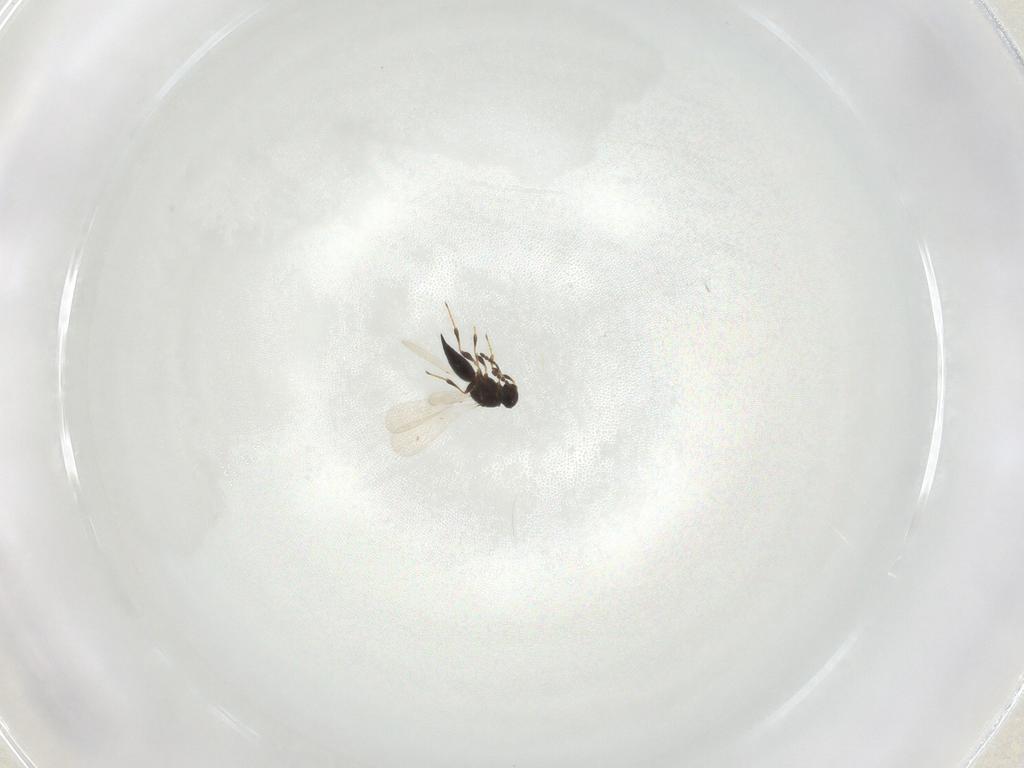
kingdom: Animalia
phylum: Arthropoda
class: Insecta
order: Hymenoptera
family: Platygastridae
